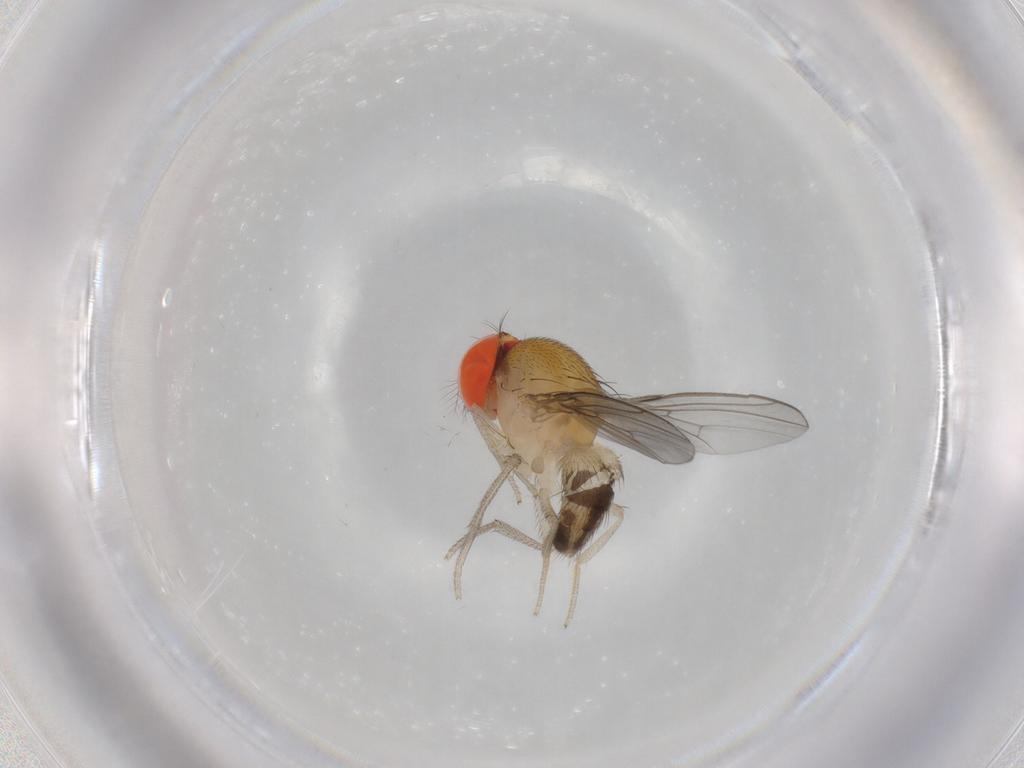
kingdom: Animalia
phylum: Arthropoda
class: Insecta
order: Diptera
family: Drosophilidae
